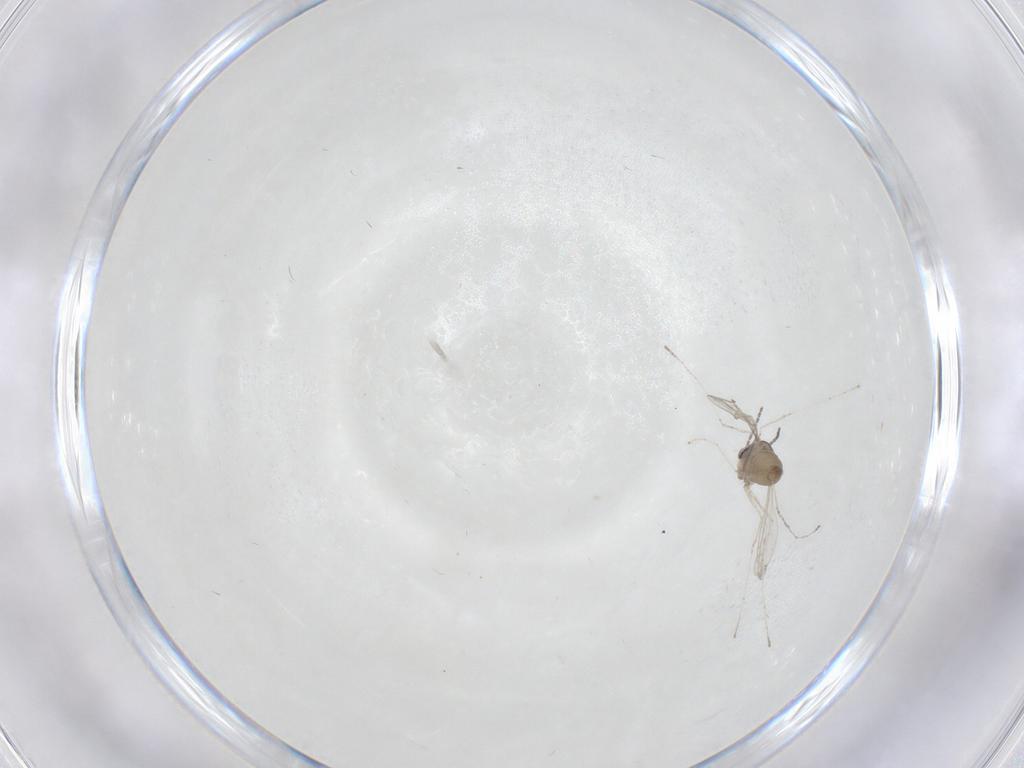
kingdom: Animalia
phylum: Arthropoda
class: Insecta
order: Diptera
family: Cecidomyiidae
